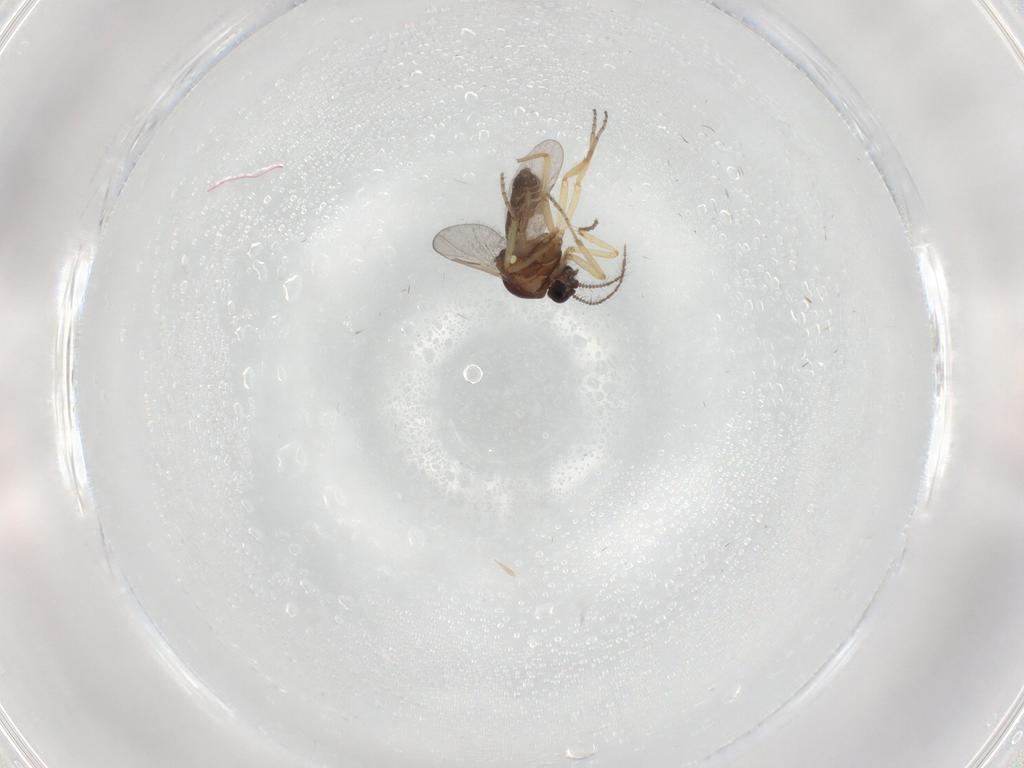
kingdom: Animalia
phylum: Arthropoda
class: Insecta
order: Diptera
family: Ceratopogonidae
